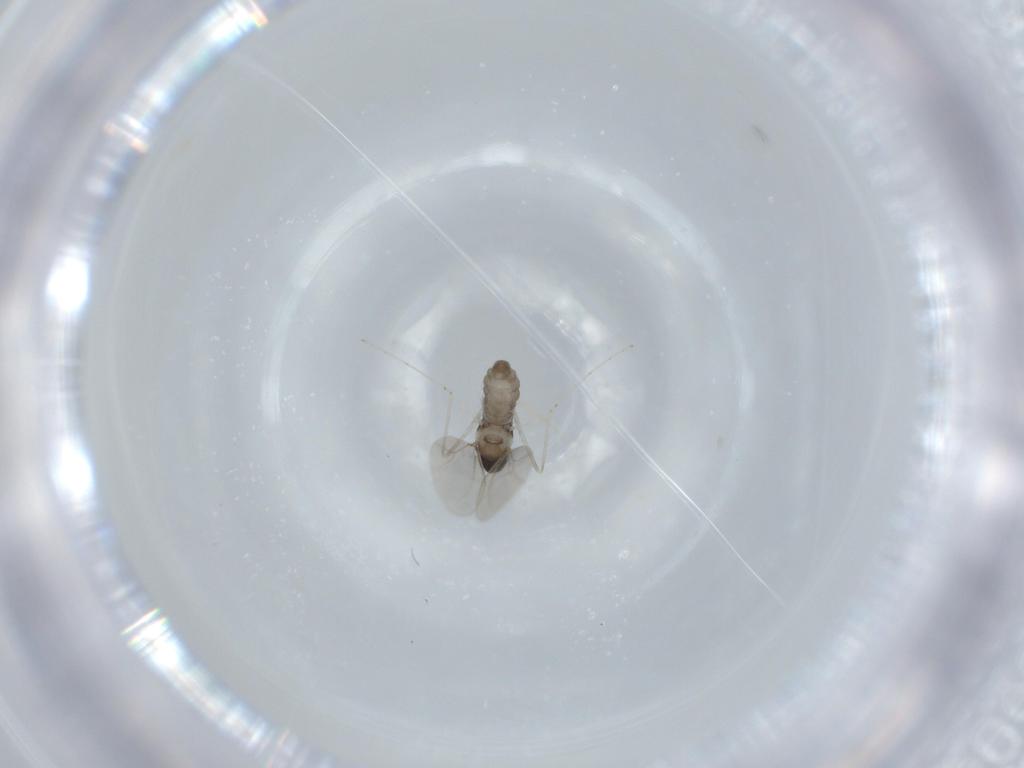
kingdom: Animalia
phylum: Arthropoda
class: Insecta
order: Diptera
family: Cecidomyiidae
